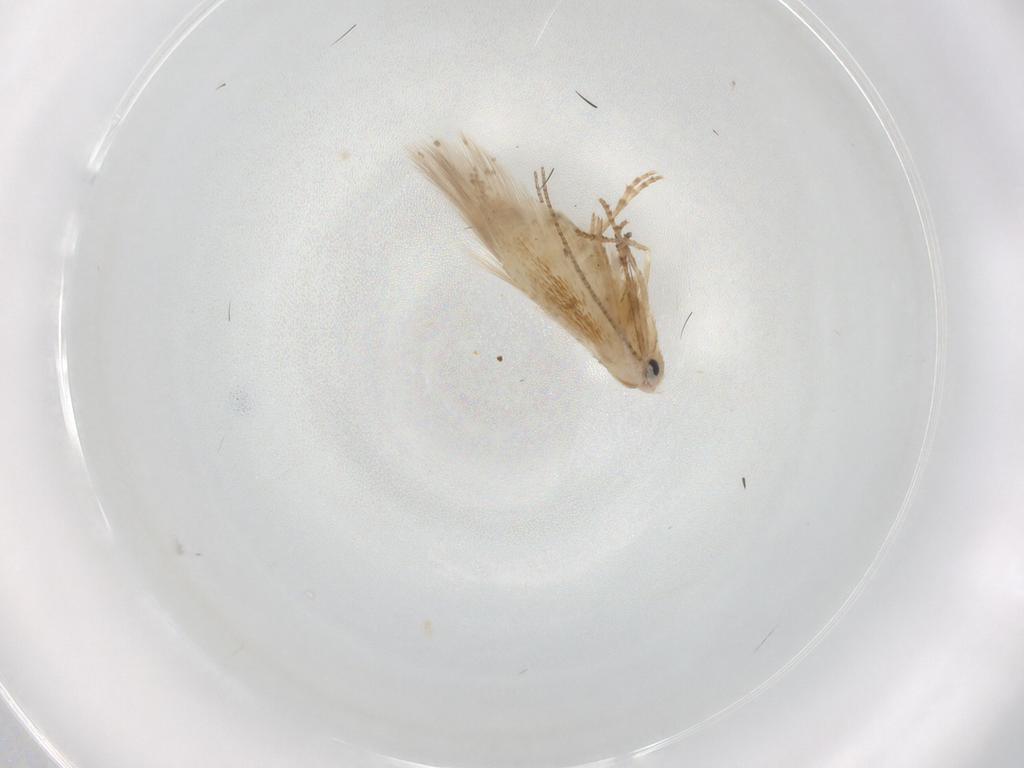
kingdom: Animalia
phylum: Arthropoda
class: Insecta
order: Lepidoptera
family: Bucculatricidae
